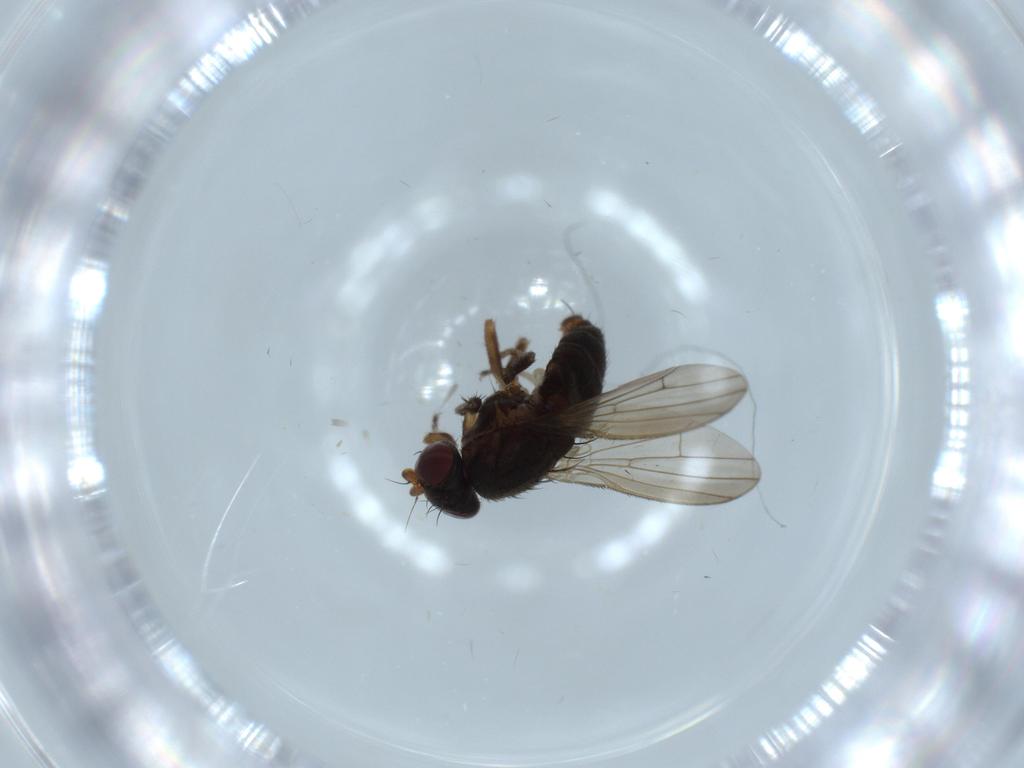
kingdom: Animalia
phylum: Arthropoda
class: Insecta
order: Diptera
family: Heleomyzidae
